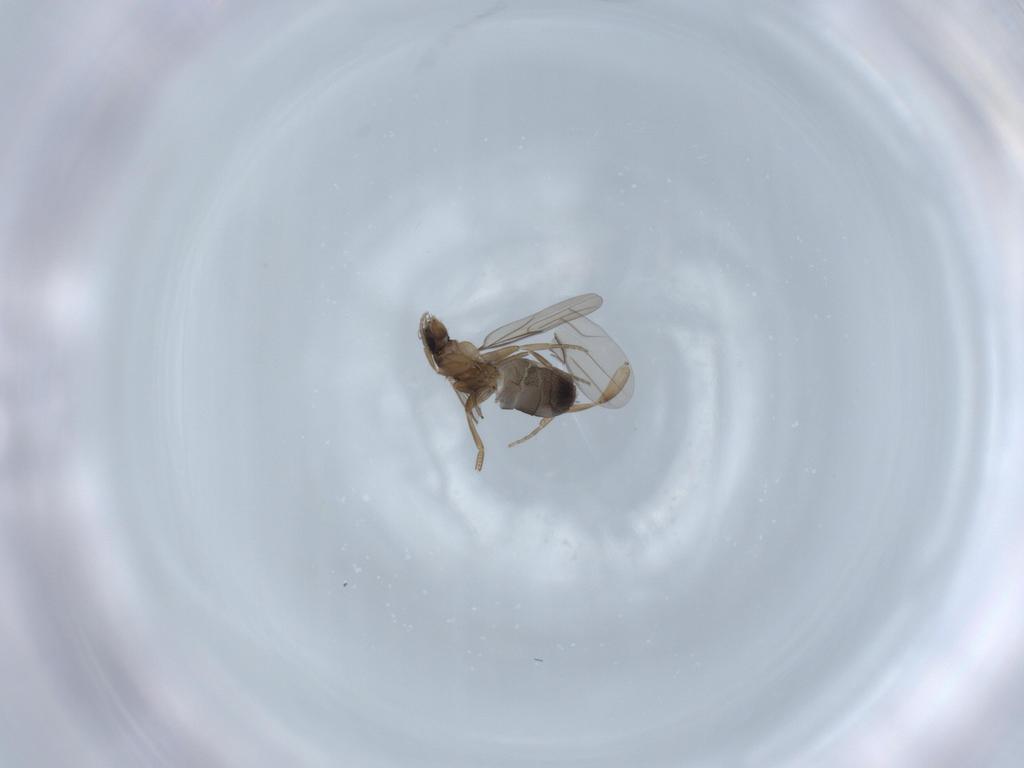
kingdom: Animalia
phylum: Arthropoda
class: Insecta
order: Diptera
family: Phoridae
